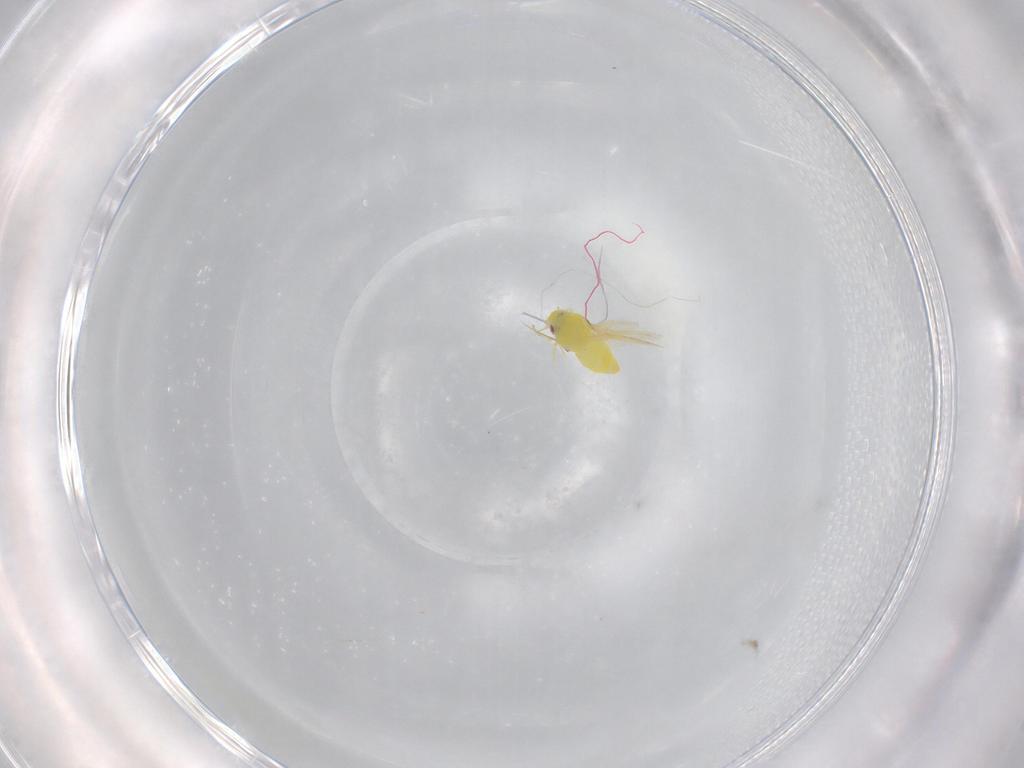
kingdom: Animalia
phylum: Arthropoda
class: Insecta
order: Hemiptera
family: Aleyrodidae
